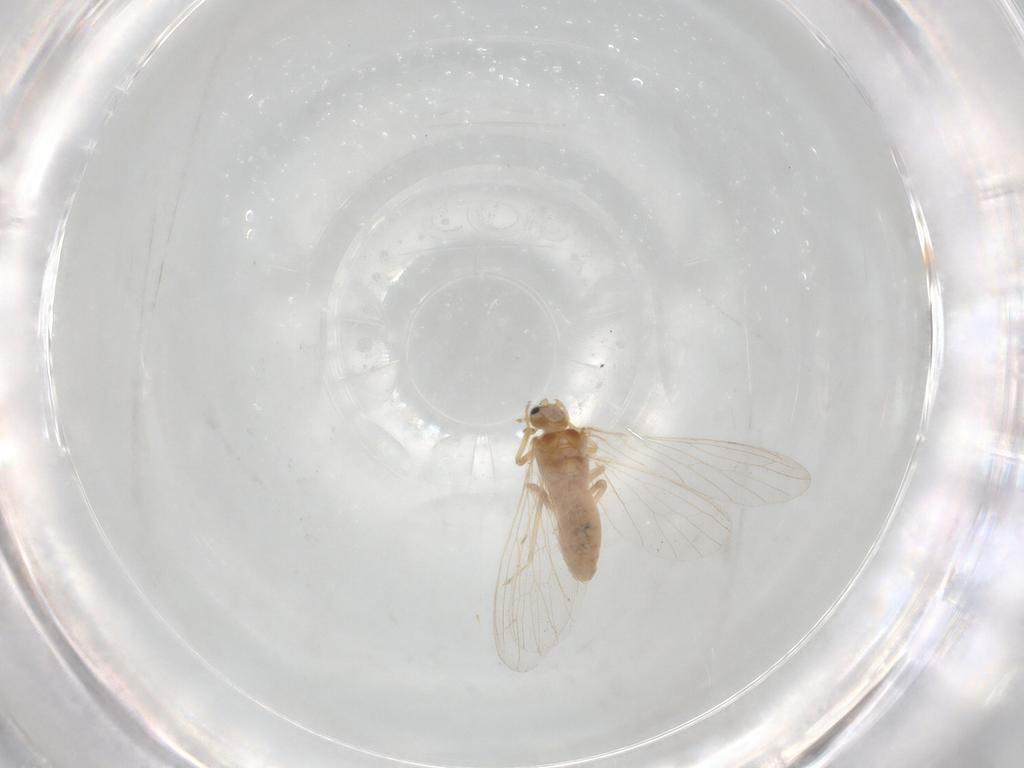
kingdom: Animalia
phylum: Arthropoda
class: Insecta
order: Neuroptera
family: Coniopterygidae
